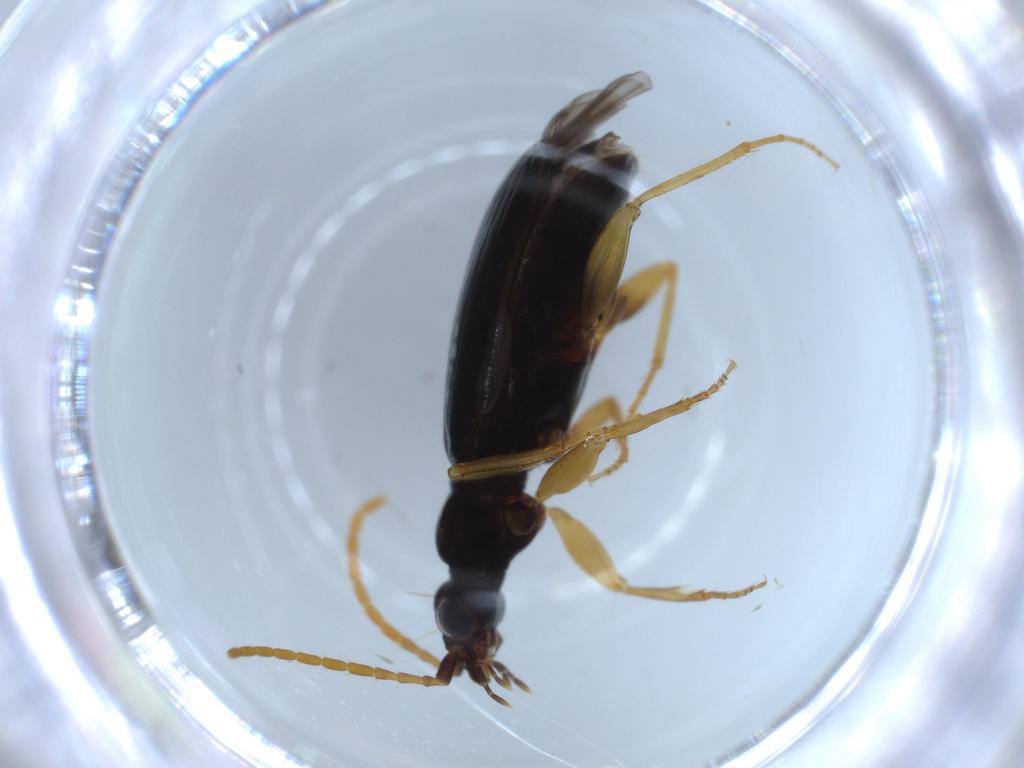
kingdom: Animalia
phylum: Arthropoda
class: Insecta
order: Coleoptera
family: Carabidae
